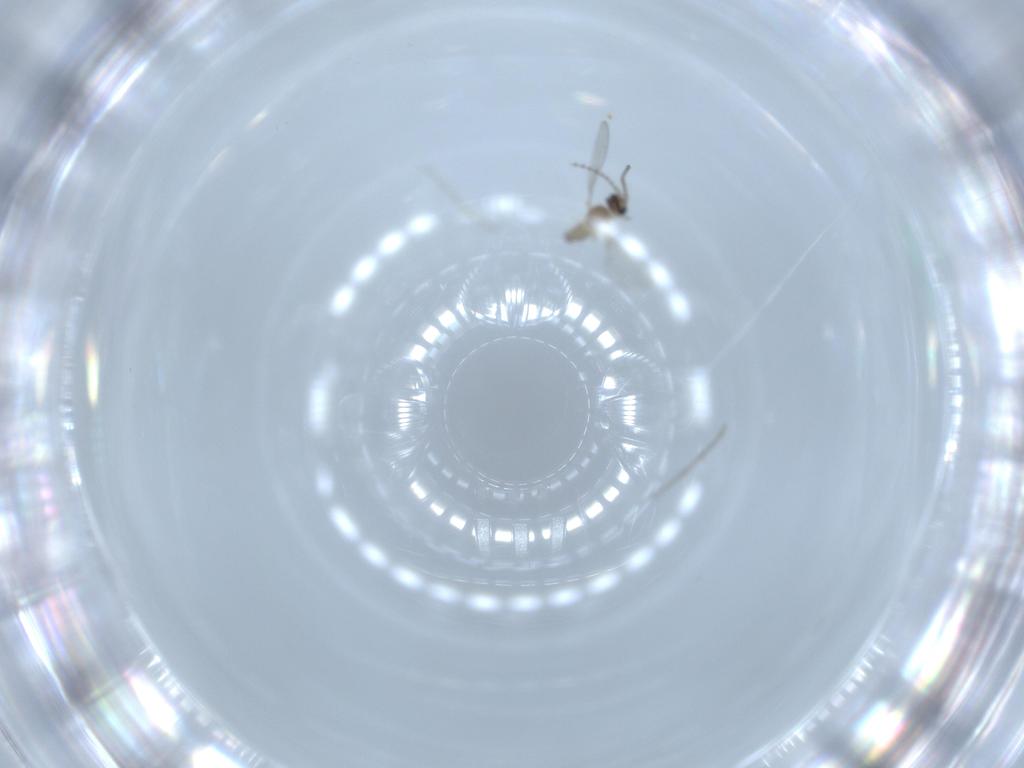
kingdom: Animalia
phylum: Arthropoda
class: Insecta
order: Diptera
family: Cecidomyiidae
